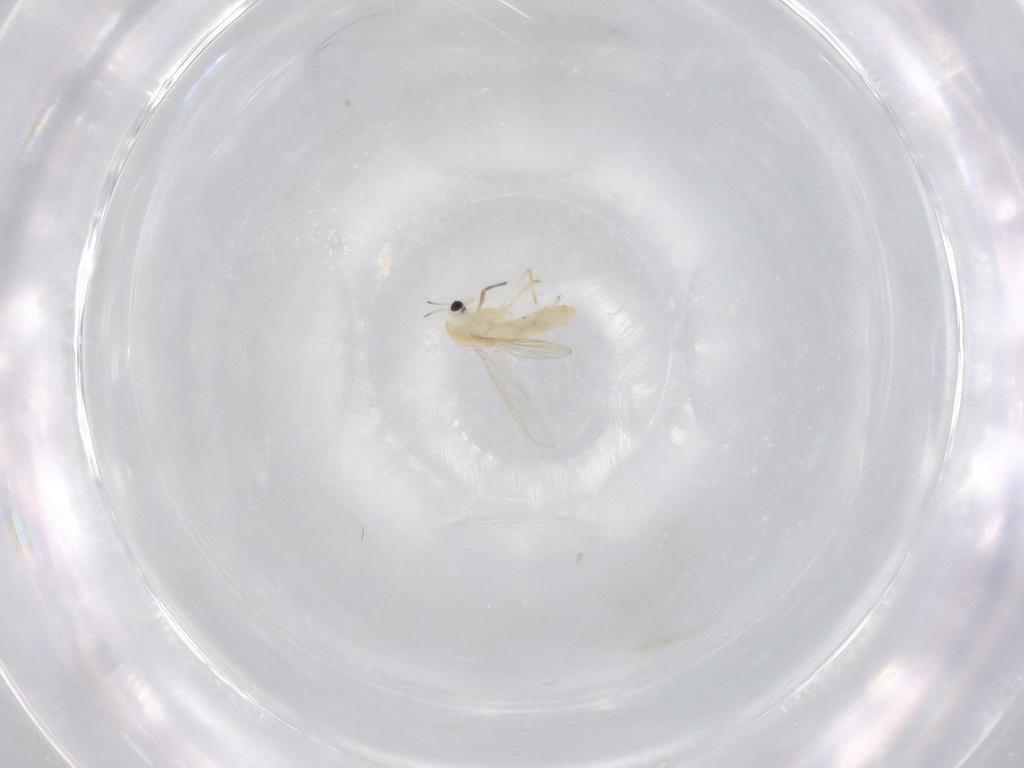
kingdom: Animalia
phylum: Arthropoda
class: Insecta
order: Diptera
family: Chironomidae
